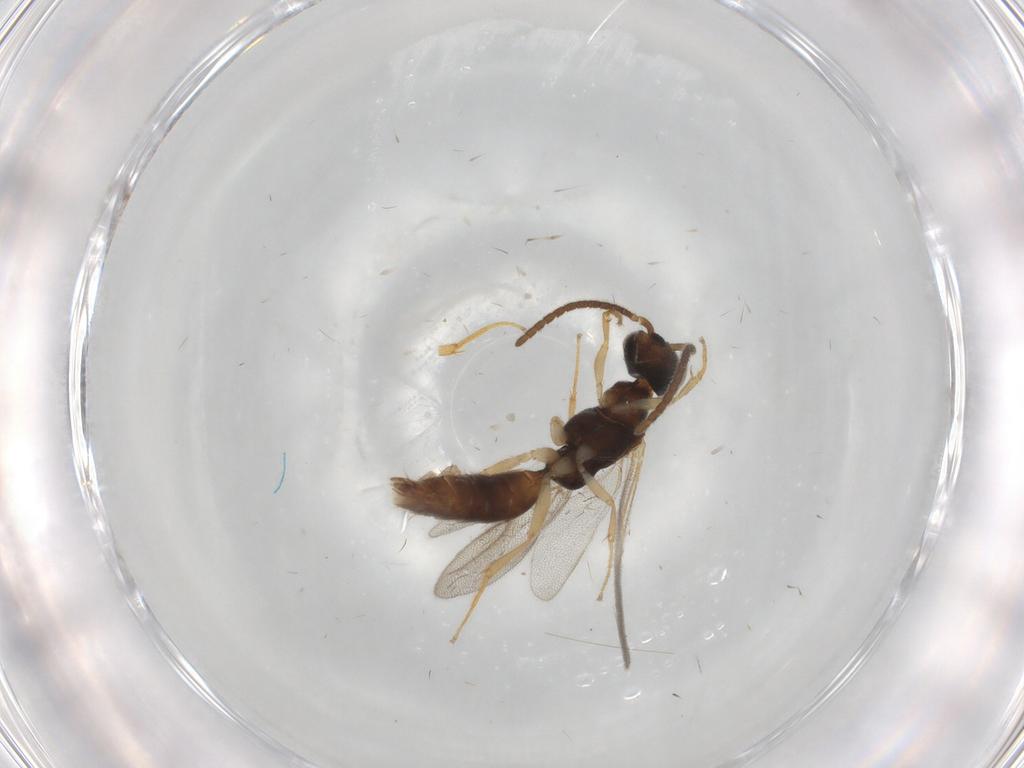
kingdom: Animalia
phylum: Arthropoda
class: Insecta
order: Hymenoptera
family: Bethylidae
